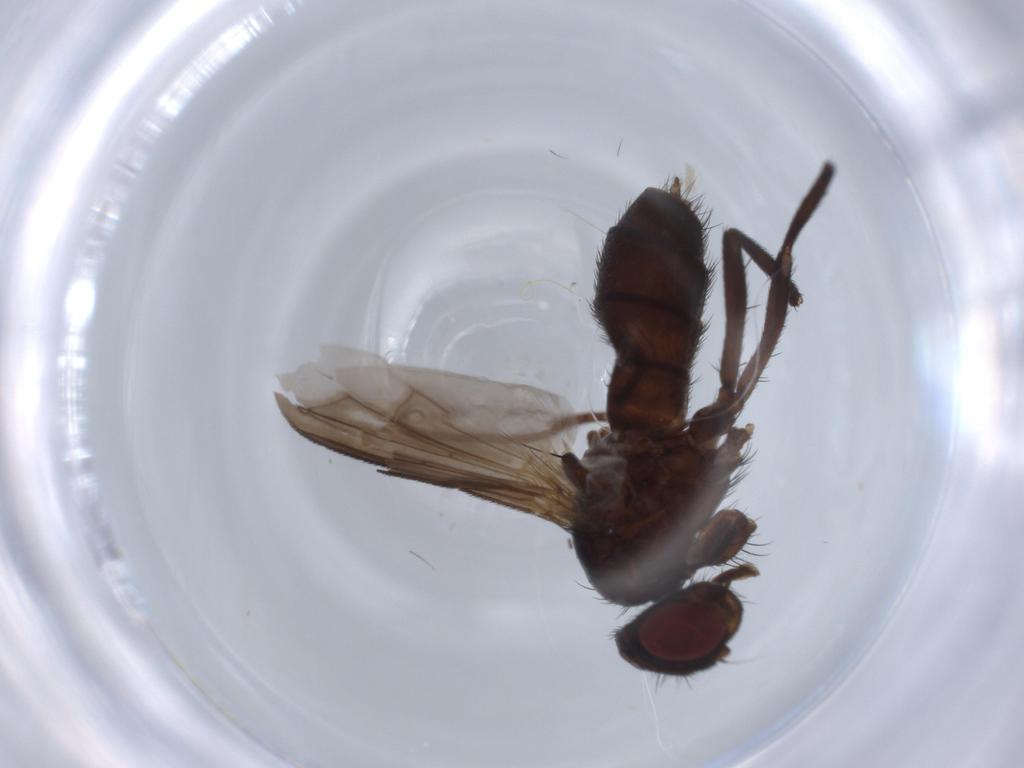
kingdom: Animalia
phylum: Arthropoda
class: Insecta
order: Diptera
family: Tachinidae
